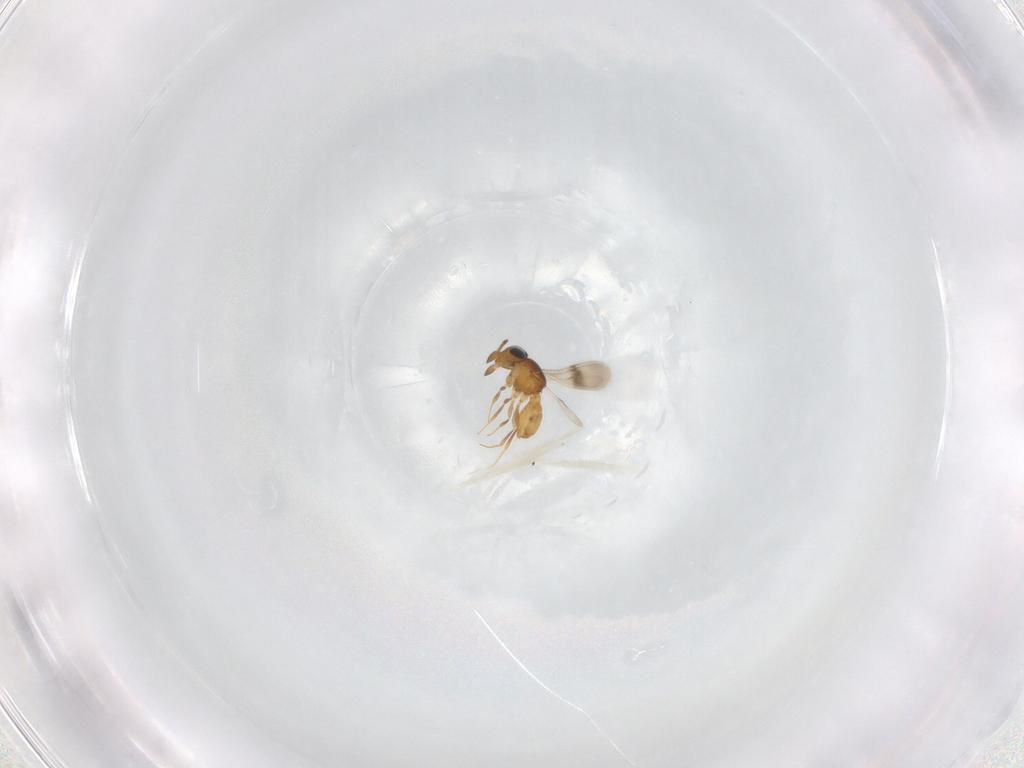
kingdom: Animalia
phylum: Arthropoda
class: Insecta
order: Hymenoptera
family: Scelionidae
